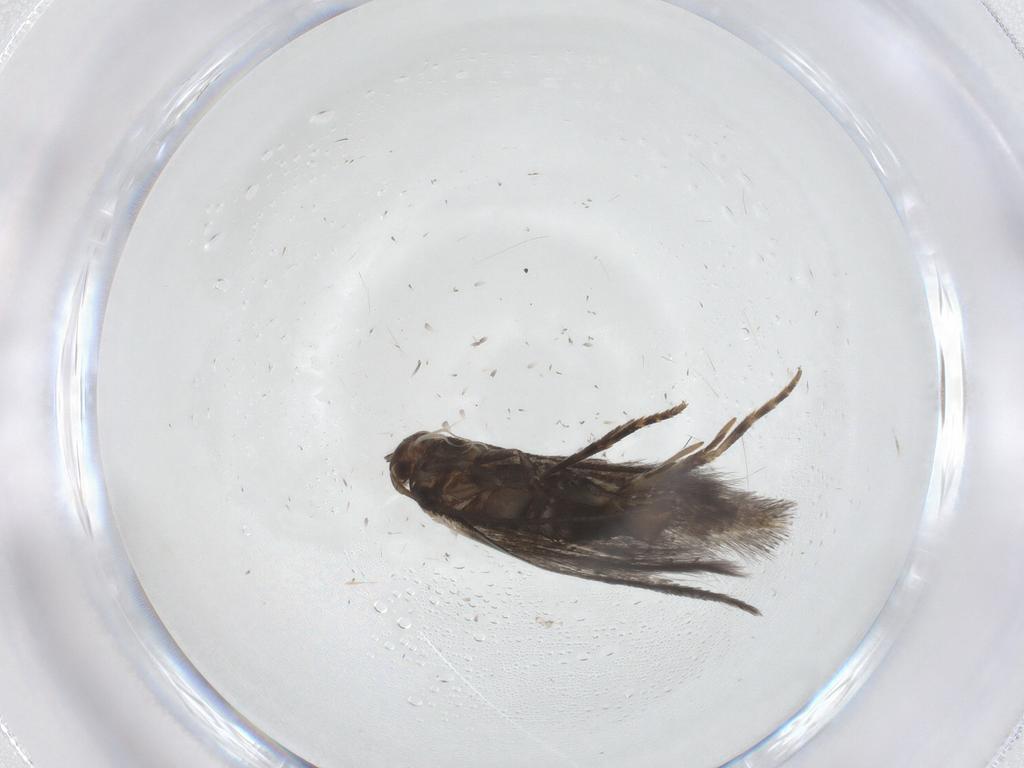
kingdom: Animalia
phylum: Arthropoda
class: Insecta
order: Lepidoptera
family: Elachistidae
